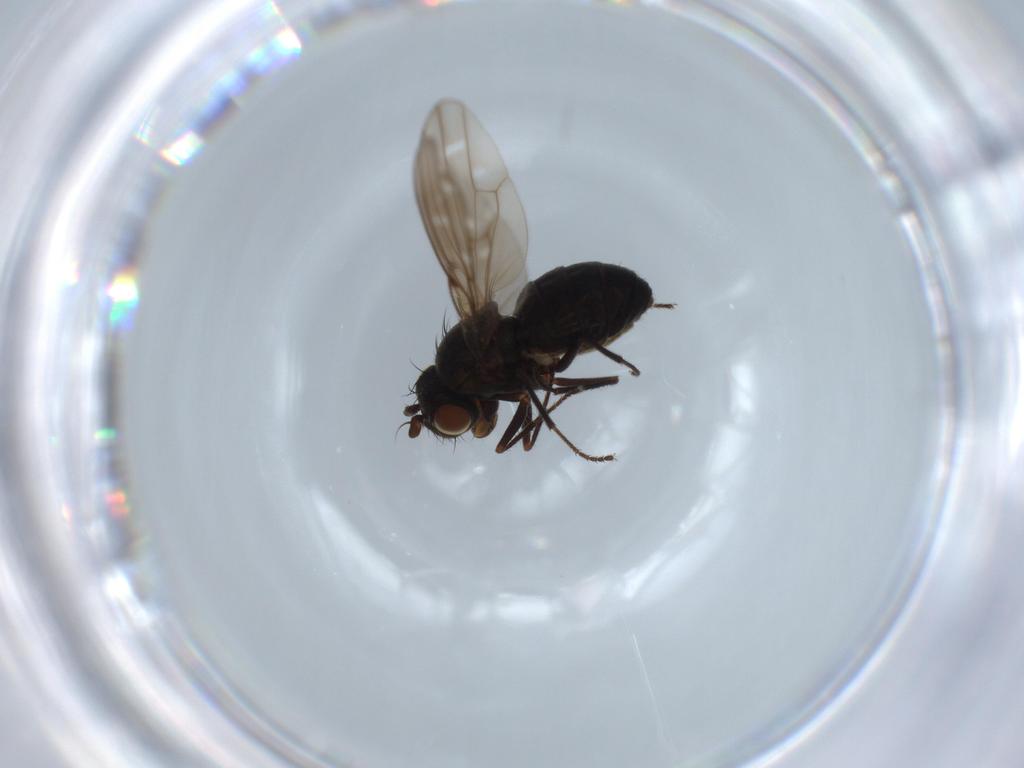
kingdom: Animalia
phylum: Arthropoda
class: Insecta
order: Diptera
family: Ephydridae
